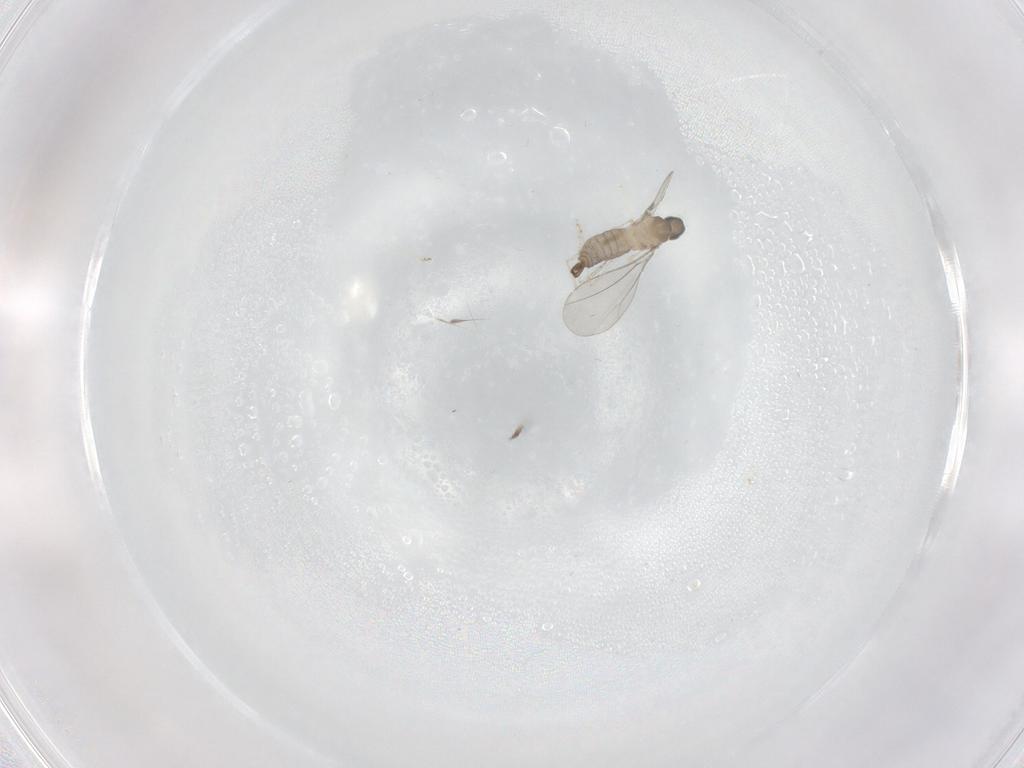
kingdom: Animalia
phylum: Arthropoda
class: Insecta
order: Diptera
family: Cecidomyiidae
